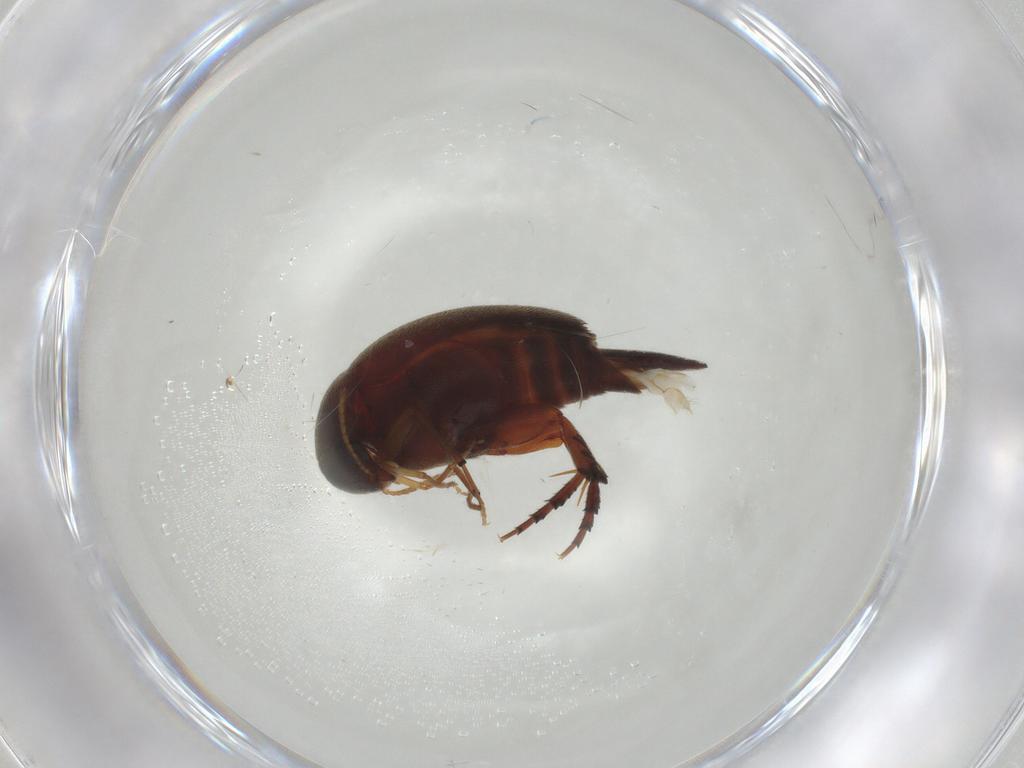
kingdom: Animalia
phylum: Arthropoda
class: Insecta
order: Coleoptera
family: Mordellidae
